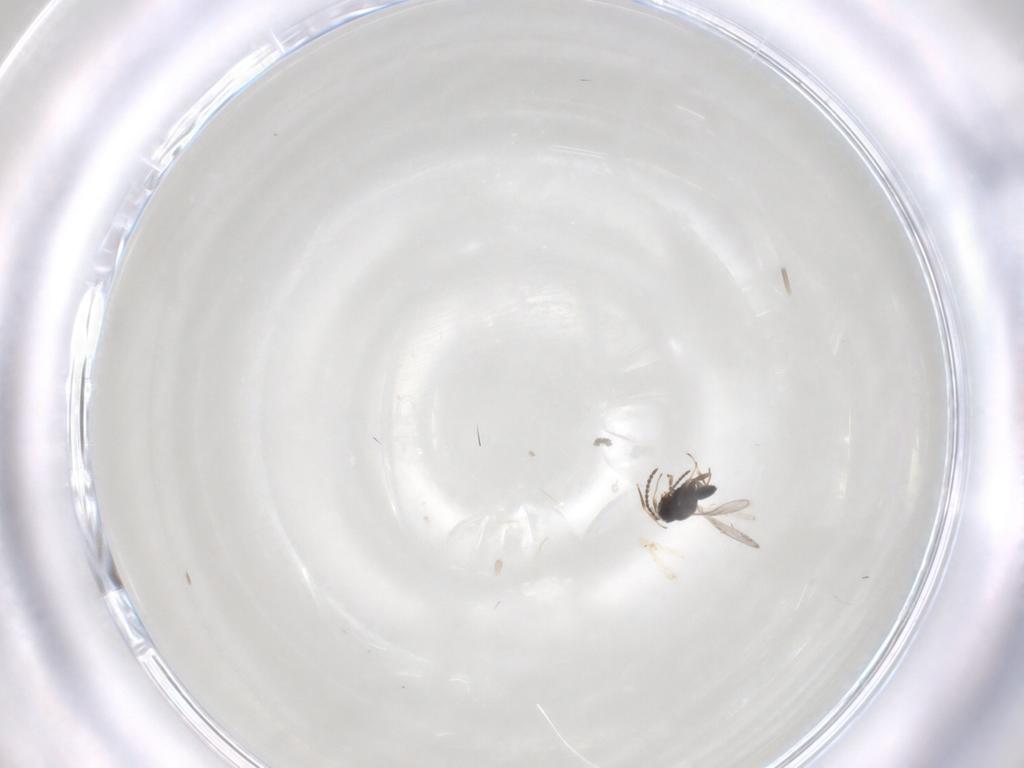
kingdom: Animalia
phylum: Arthropoda
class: Insecta
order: Hymenoptera
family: Scelionidae
